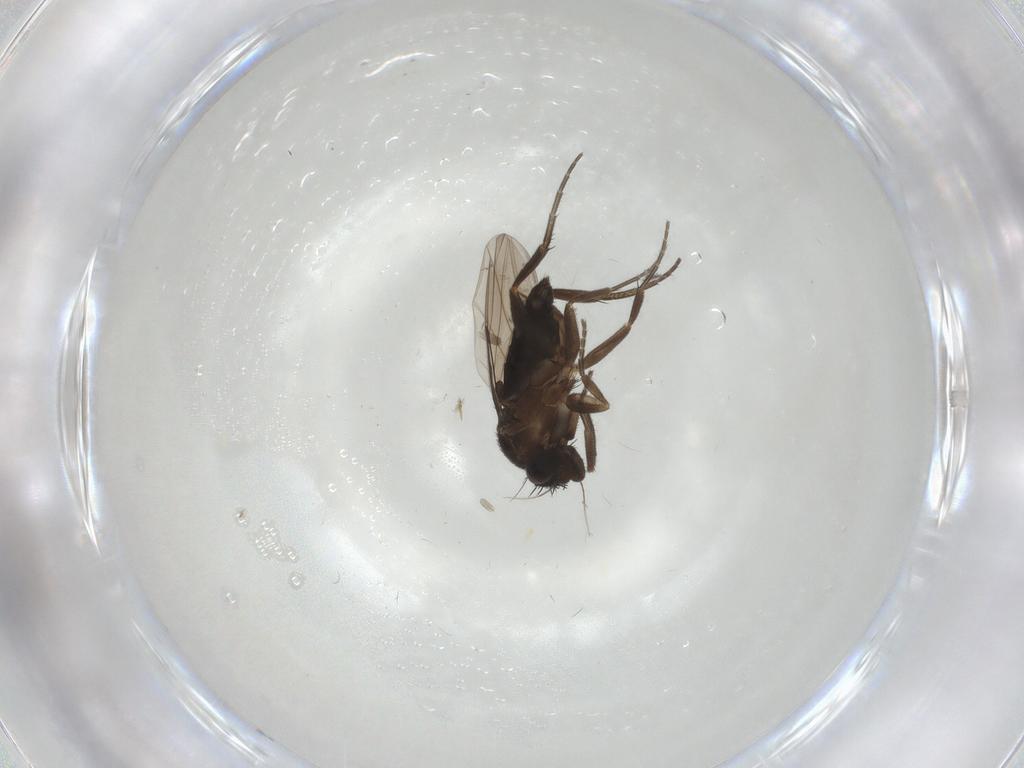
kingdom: Animalia
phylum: Arthropoda
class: Insecta
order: Diptera
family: Phoridae
